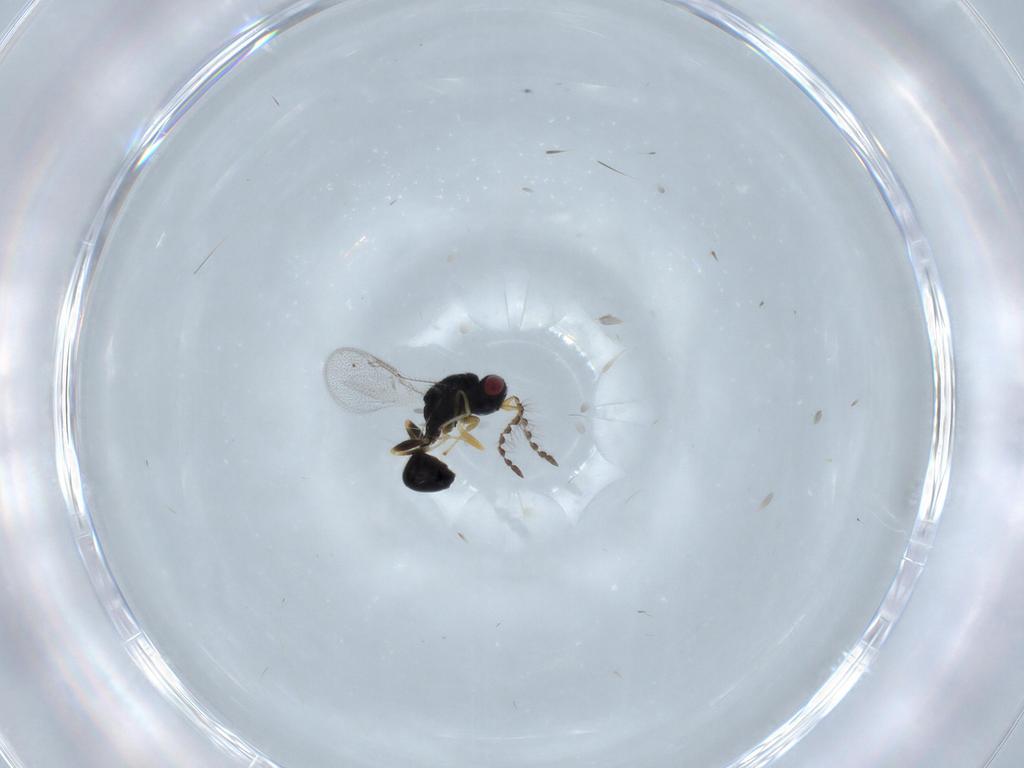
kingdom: Animalia
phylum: Arthropoda
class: Insecta
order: Hymenoptera
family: Eurytomidae
